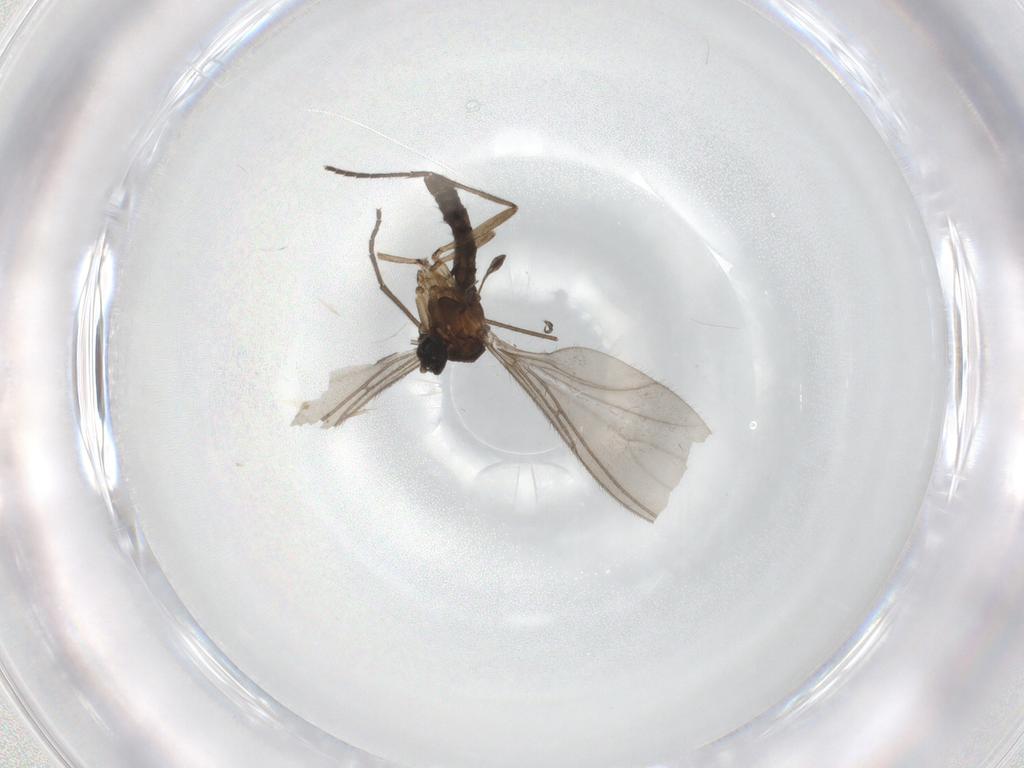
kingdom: Animalia
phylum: Arthropoda
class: Insecta
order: Diptera
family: Sciaridae
